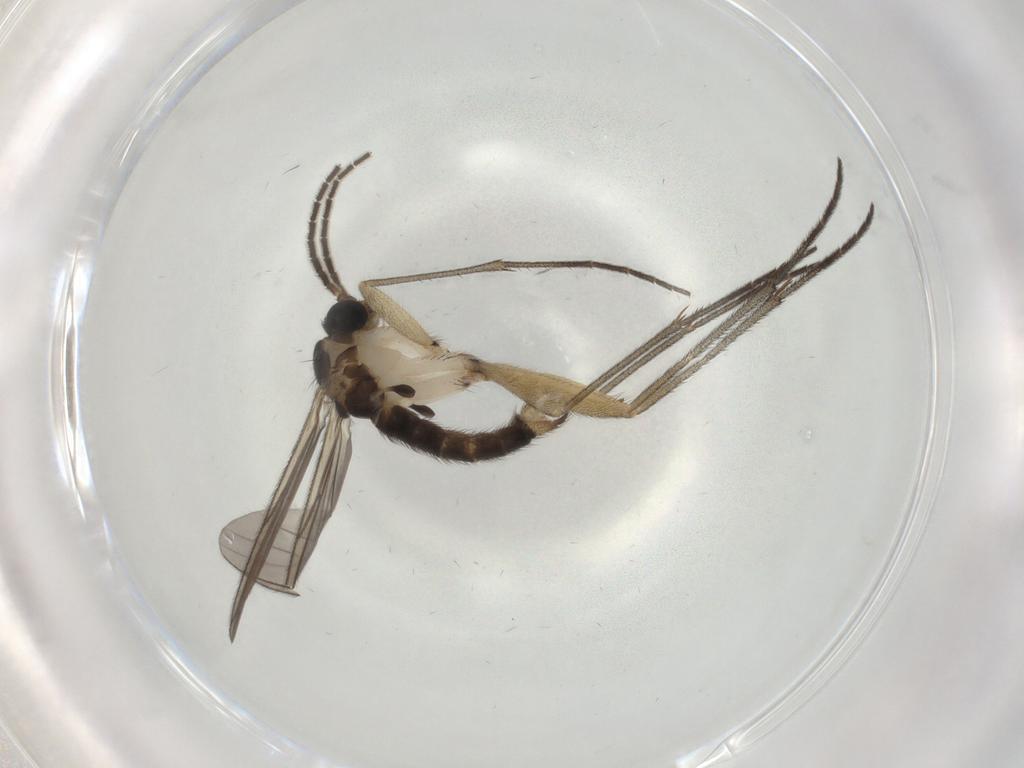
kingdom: Animalia
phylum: Arthropoda
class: Insecta
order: Diptera
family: Sciaridae
